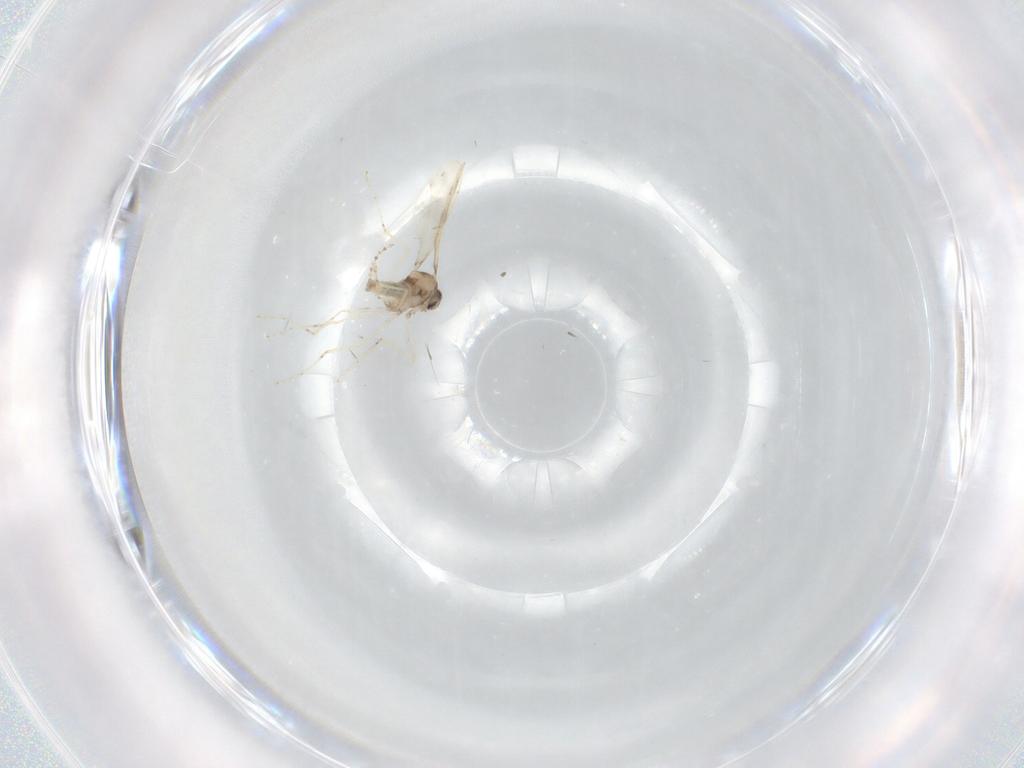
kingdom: Animalia
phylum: Arthropoda
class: Insecta
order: Diptera
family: Cecidomyiidae
